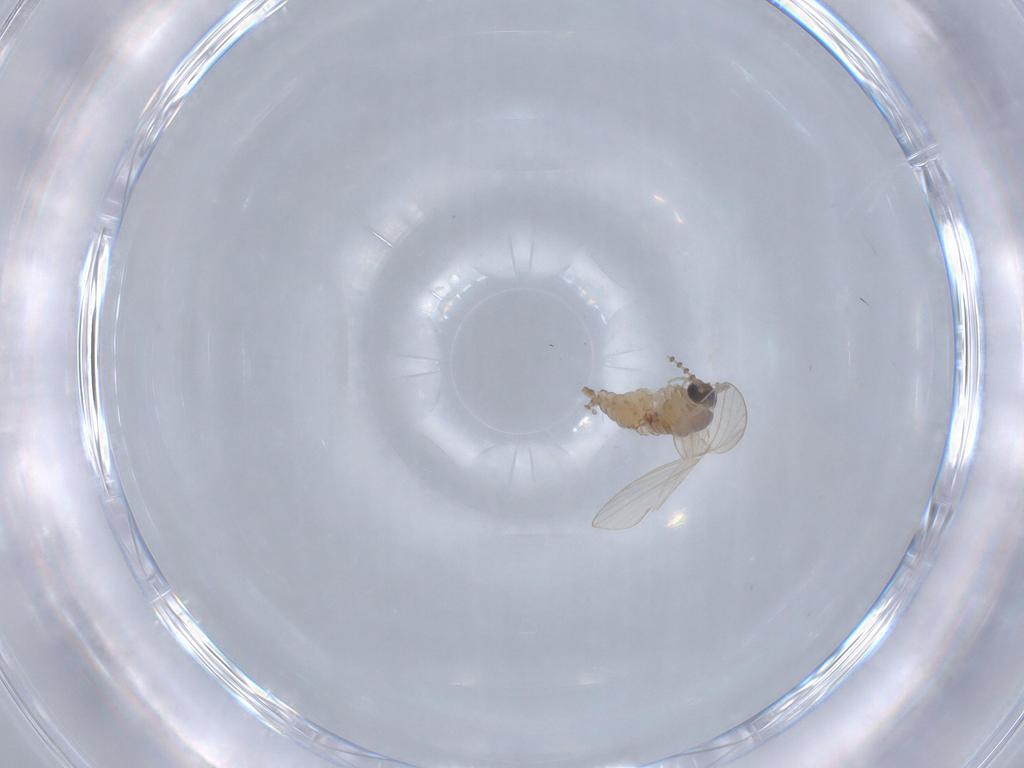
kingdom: Animalia
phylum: Arthropoda
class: Insecta
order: Diptera
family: Psychodidae
